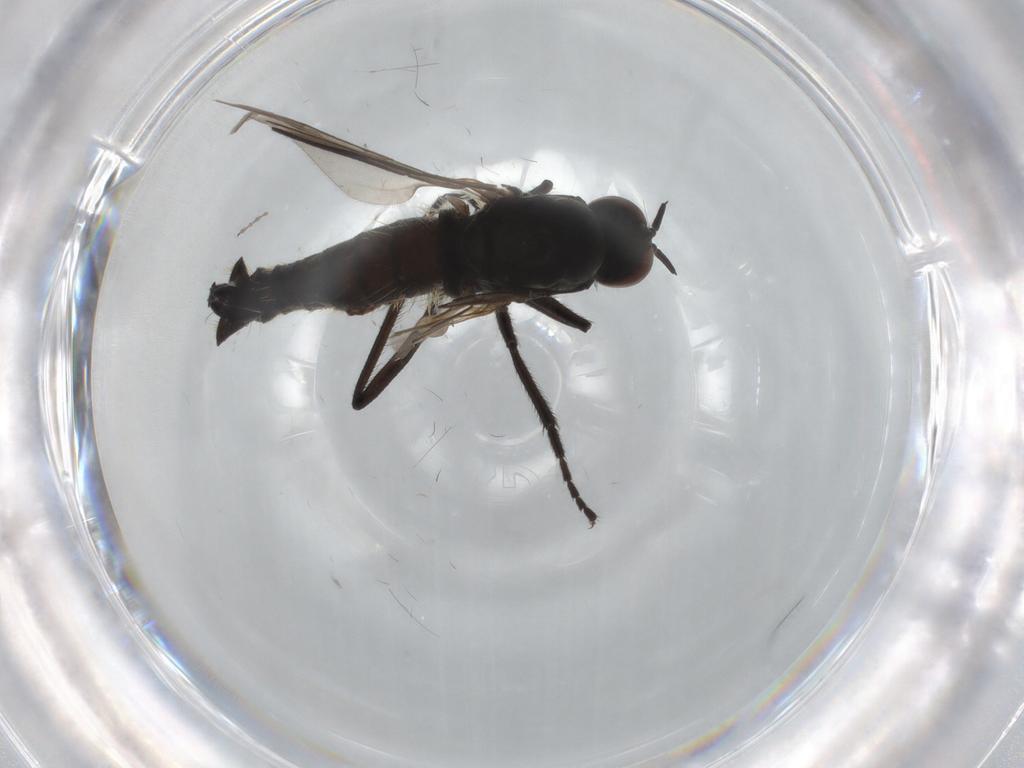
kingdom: Animalia
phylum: Arthropoda
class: Insecta
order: Diptera
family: Empididae
